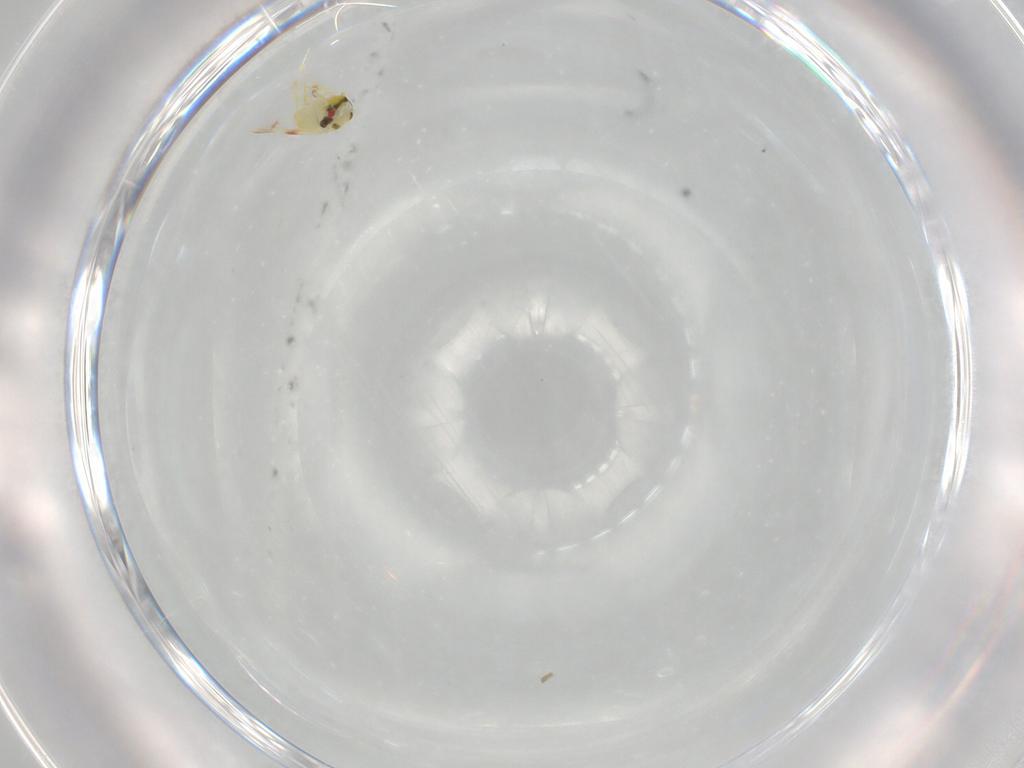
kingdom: Animalia
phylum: Arthropoda
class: Insecta
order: Hemiptera
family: Aleyrodidae
